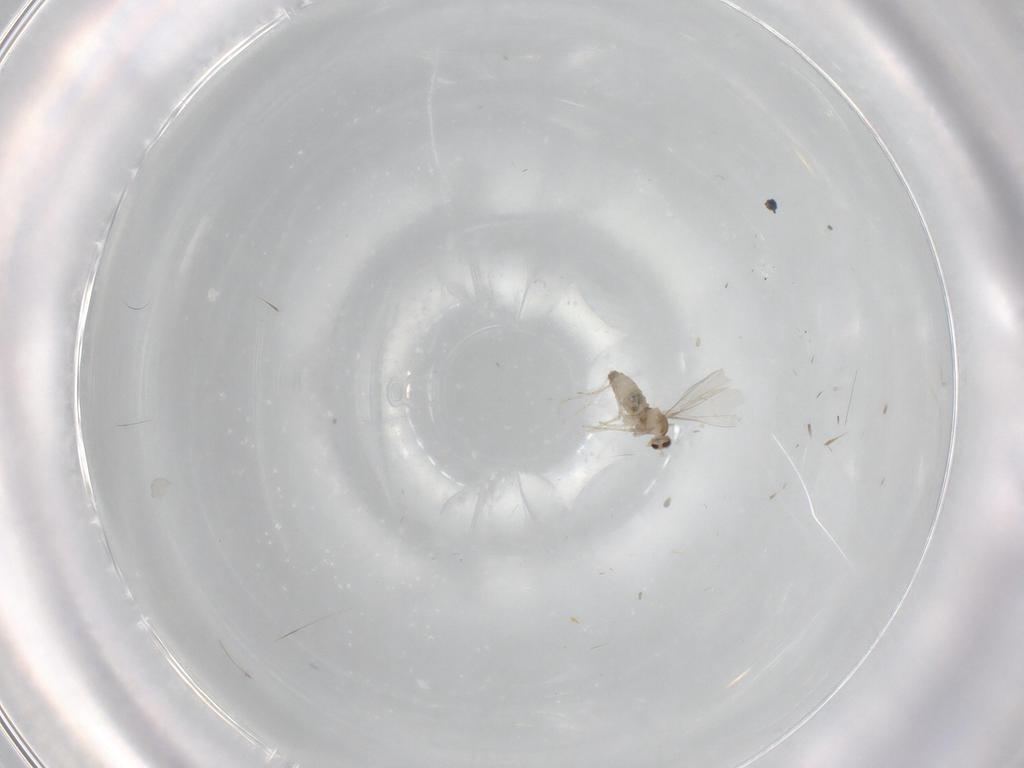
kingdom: Animalia
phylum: Arthropoda
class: Insecta
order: Diptera
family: Cecidomyiidae
